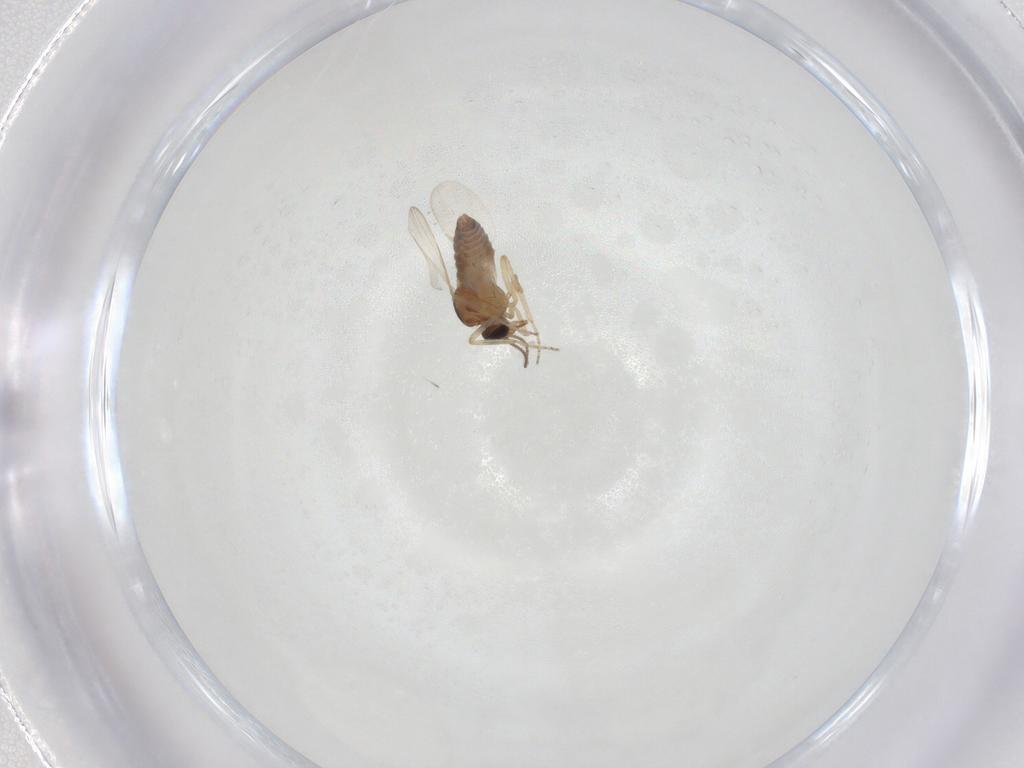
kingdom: Animalia
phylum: Arthropoda
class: Insecta
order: Diptera
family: Ceratopogonidae
